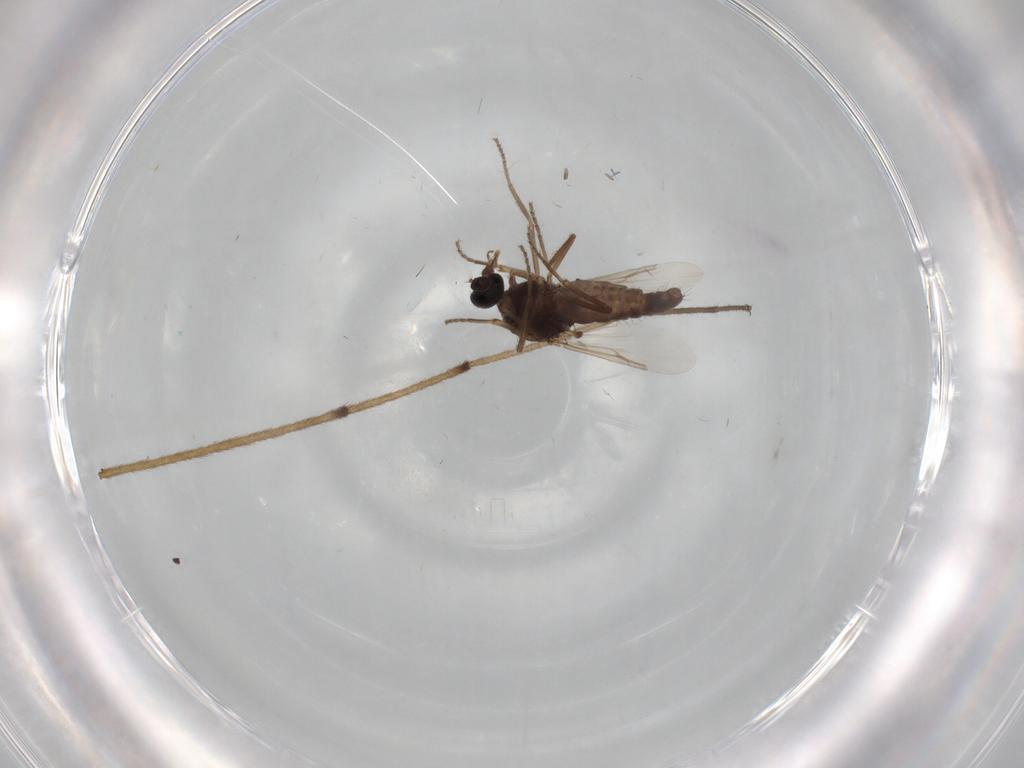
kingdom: Animalia
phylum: Arthropoda
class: Insecta
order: Diptera
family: Ceratopogonidae
